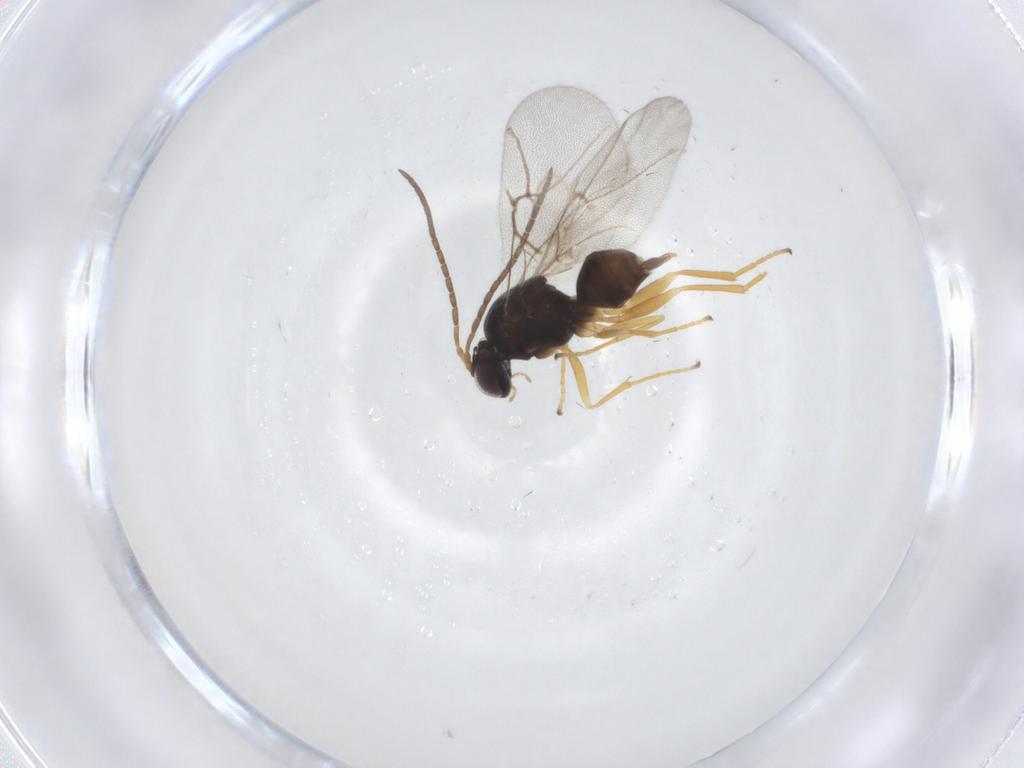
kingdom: Animalia
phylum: Arthropoda
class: Insecta
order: Hymenoptera
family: Cynipidae
